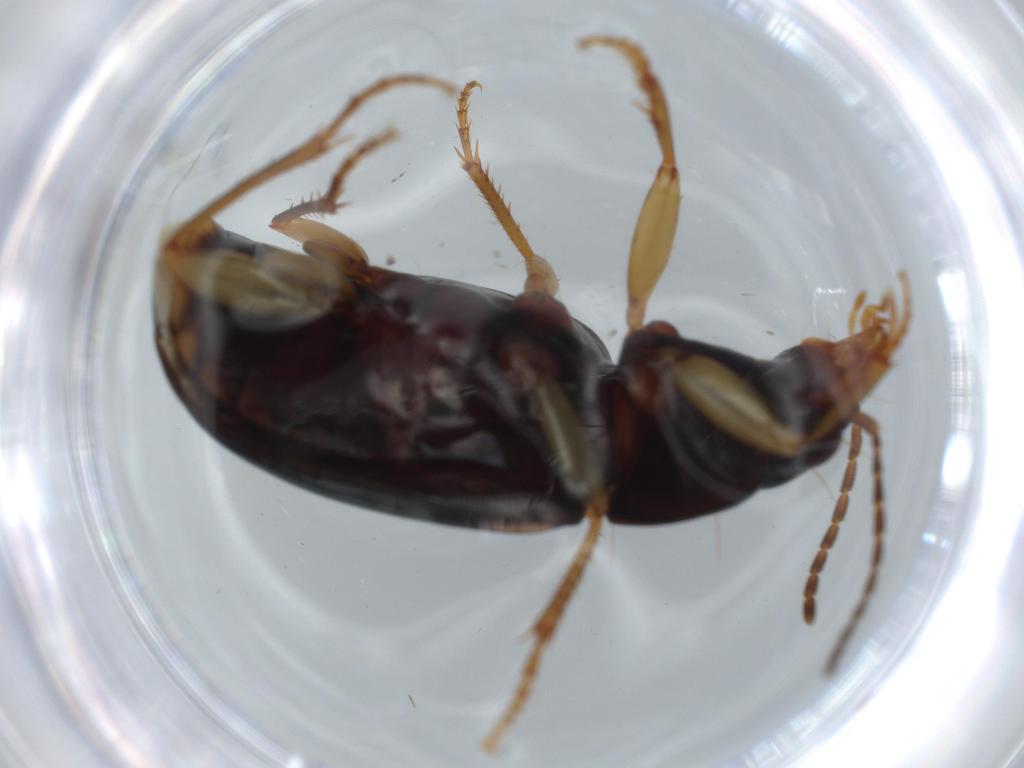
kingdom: Animalia
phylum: Arthropoda
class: Insecta
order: Coleoptera
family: Carabidae
